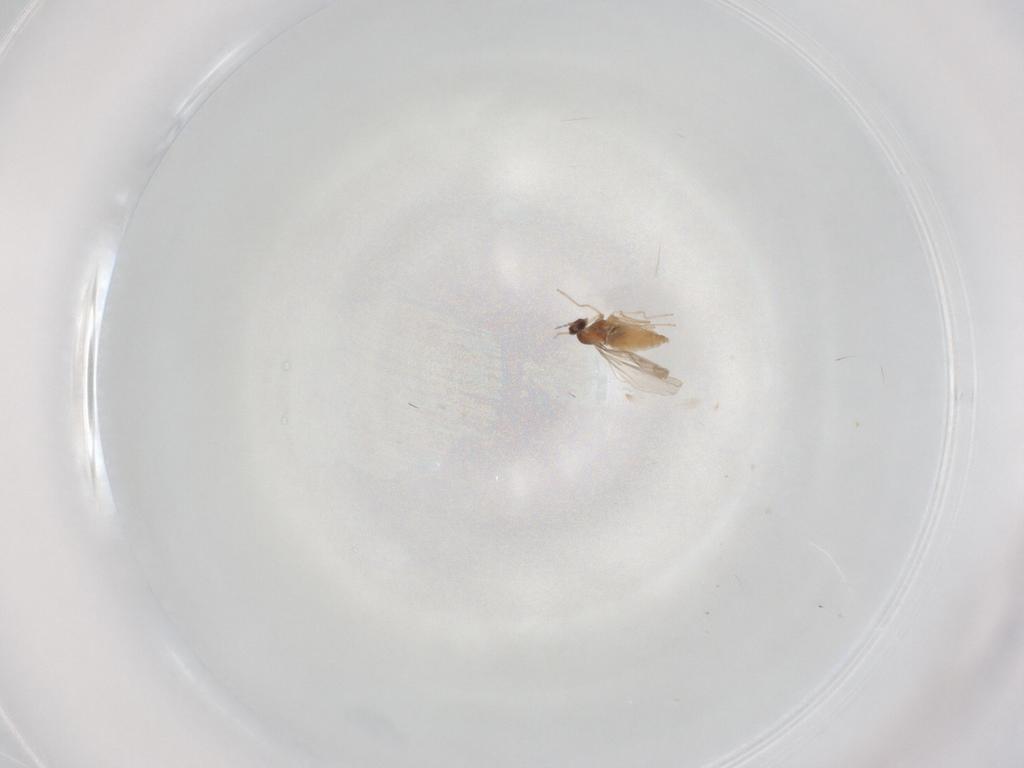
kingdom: Animalia
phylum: Arthropoda
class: Insecta
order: Diptera
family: Cecidomyiidae
